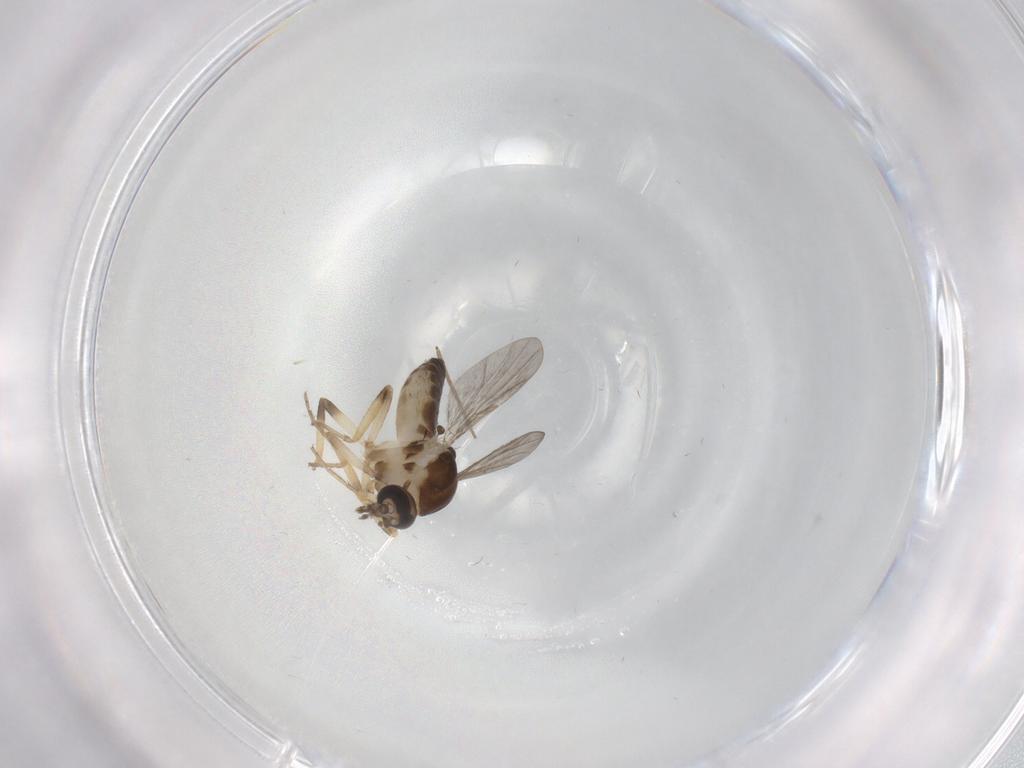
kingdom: Animalia
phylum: Arthropoda
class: Insecta
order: Diptera
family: Ceratopogonidae
